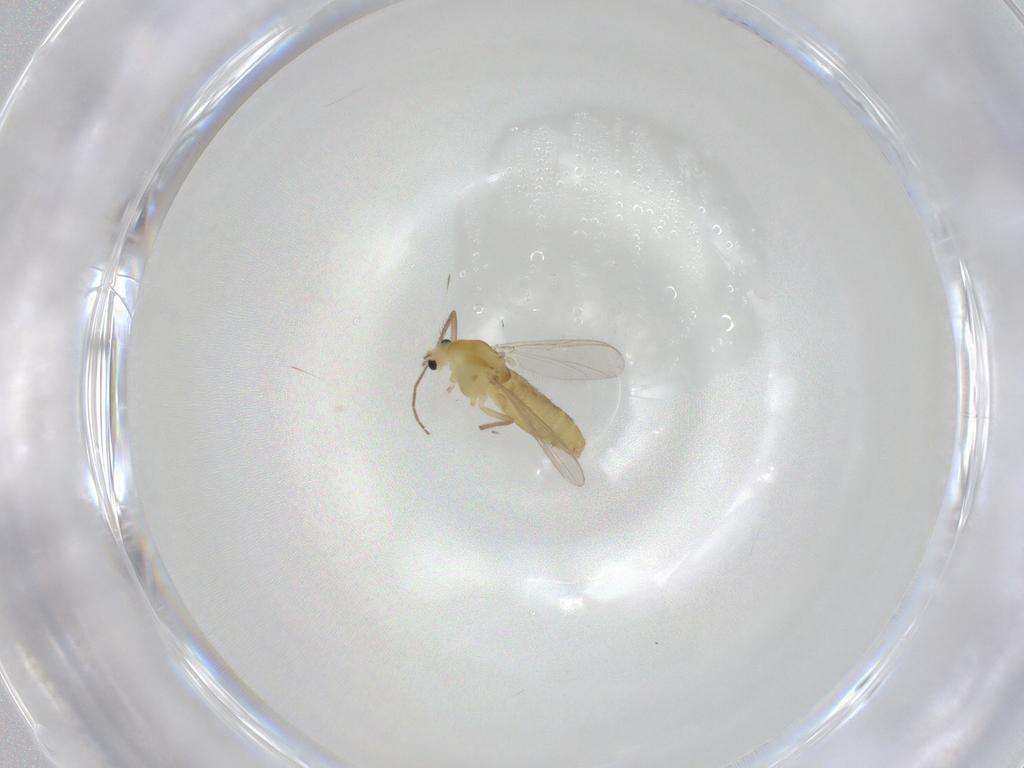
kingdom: Animalia
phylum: Arthropoda
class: Insecta
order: Diptera
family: Chironomidae
